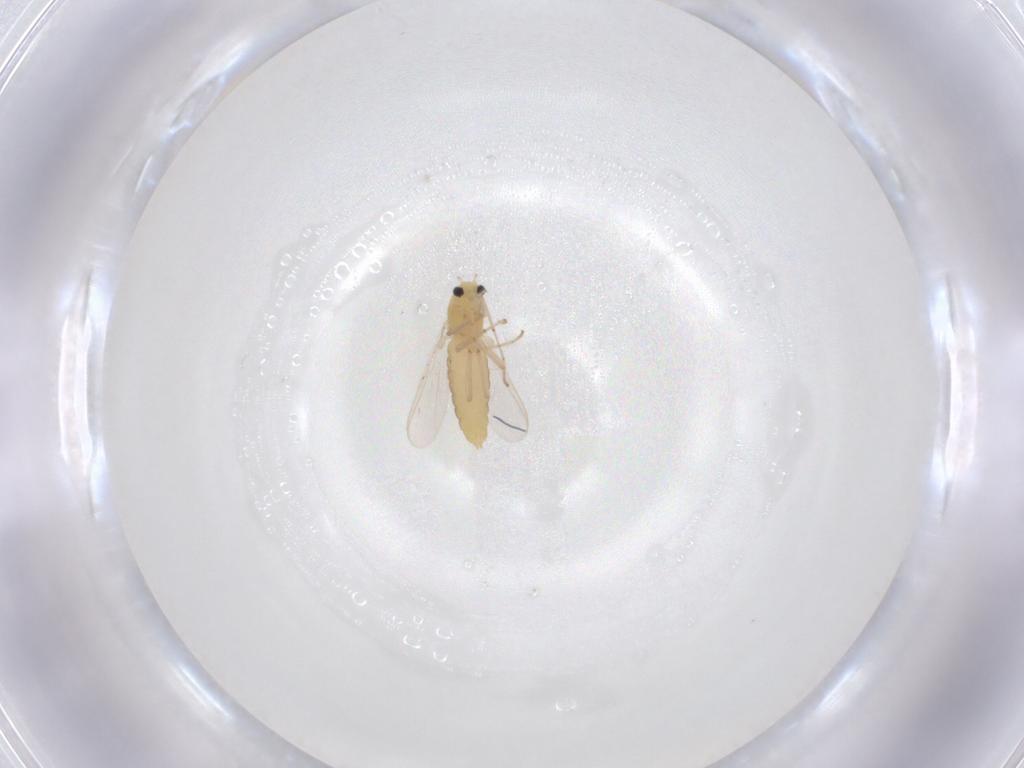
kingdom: Animalia
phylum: Arthropoda
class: Insecta
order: Diptera
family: Chironomidae
